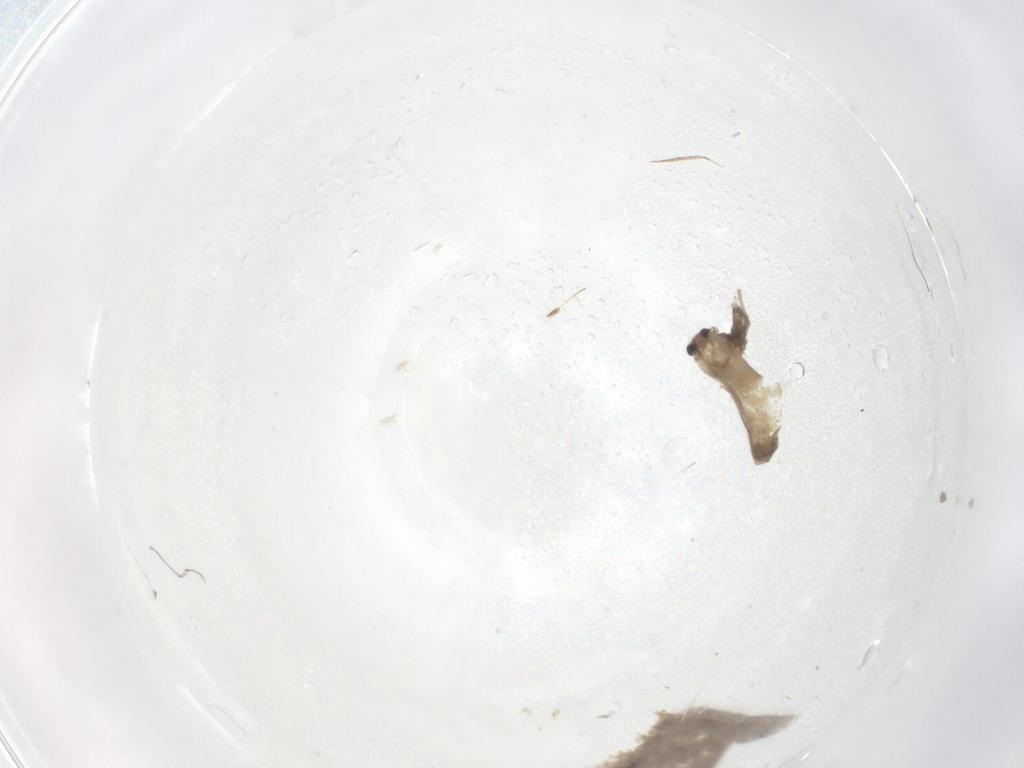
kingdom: Animalia
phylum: Arthropoda
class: Insecta
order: Diptera
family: Chironomidae
